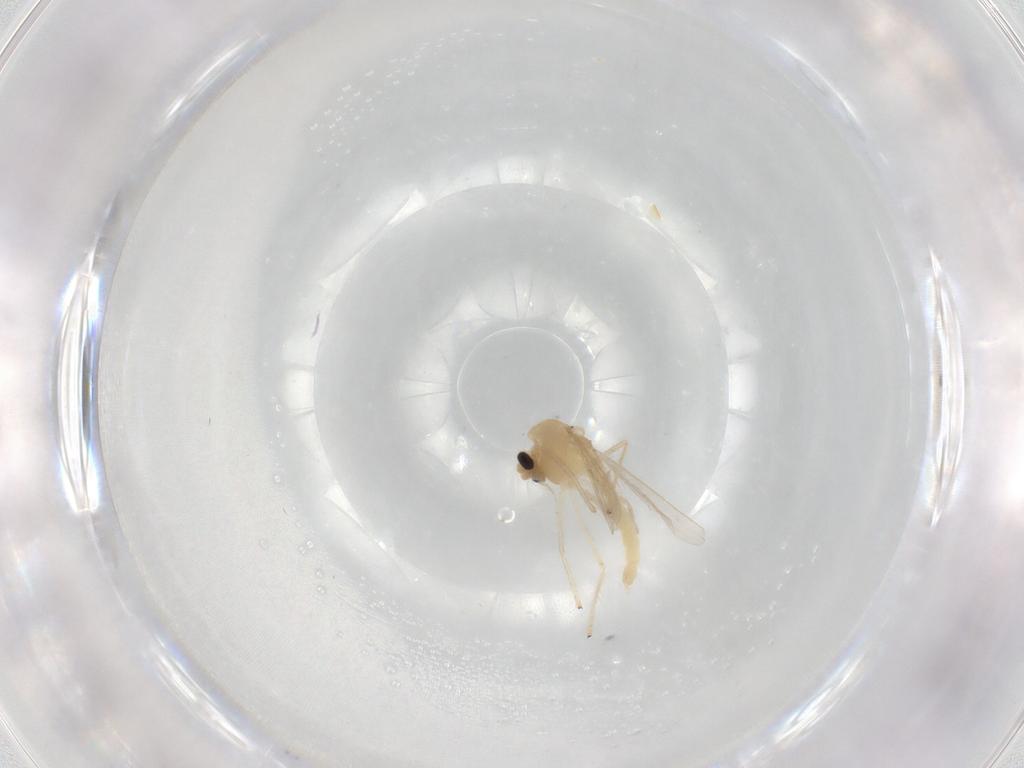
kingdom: Animalia
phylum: Arthropoda
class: Insecta
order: Diptera
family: Chironomidae
